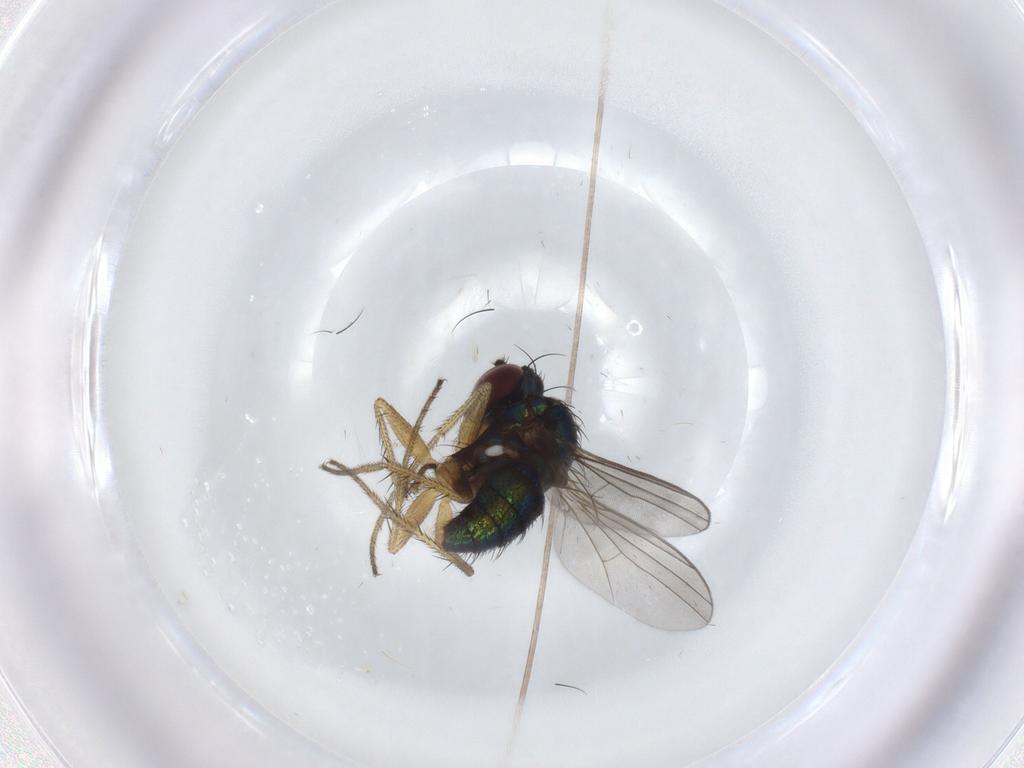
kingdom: Animalia
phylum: Arthropoda
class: Insecta
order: Diptera
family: Dolichopodidae
